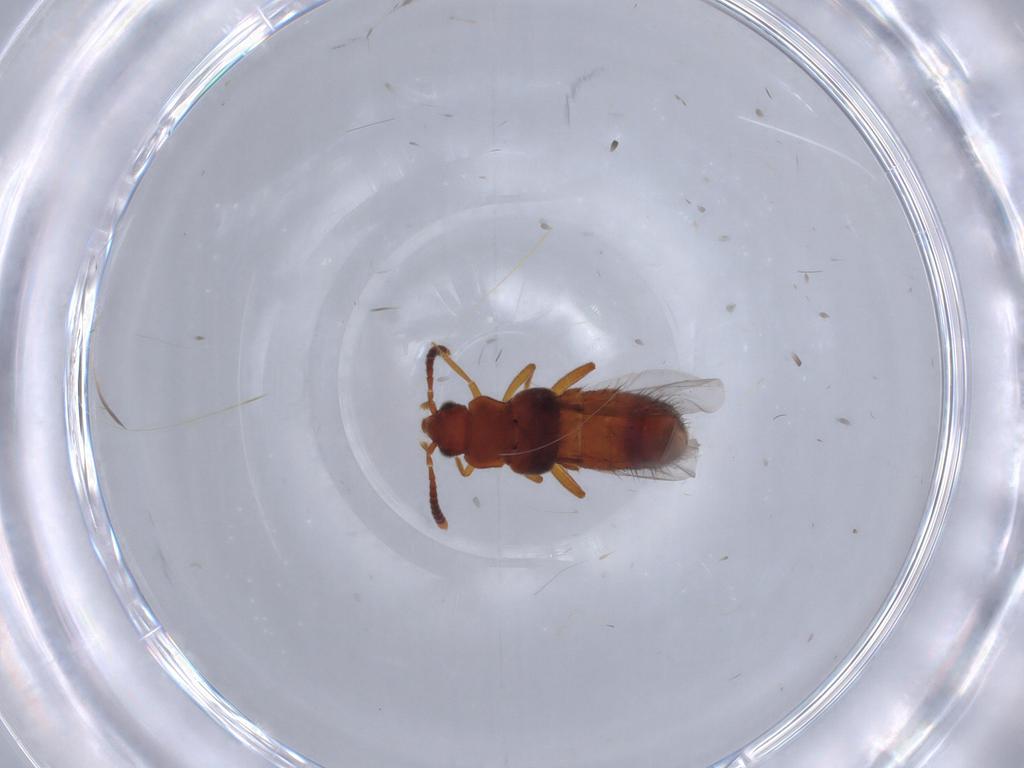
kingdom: Animalia
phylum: Arthropoda
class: Insecta
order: Coleoptera
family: Staphylinidae
